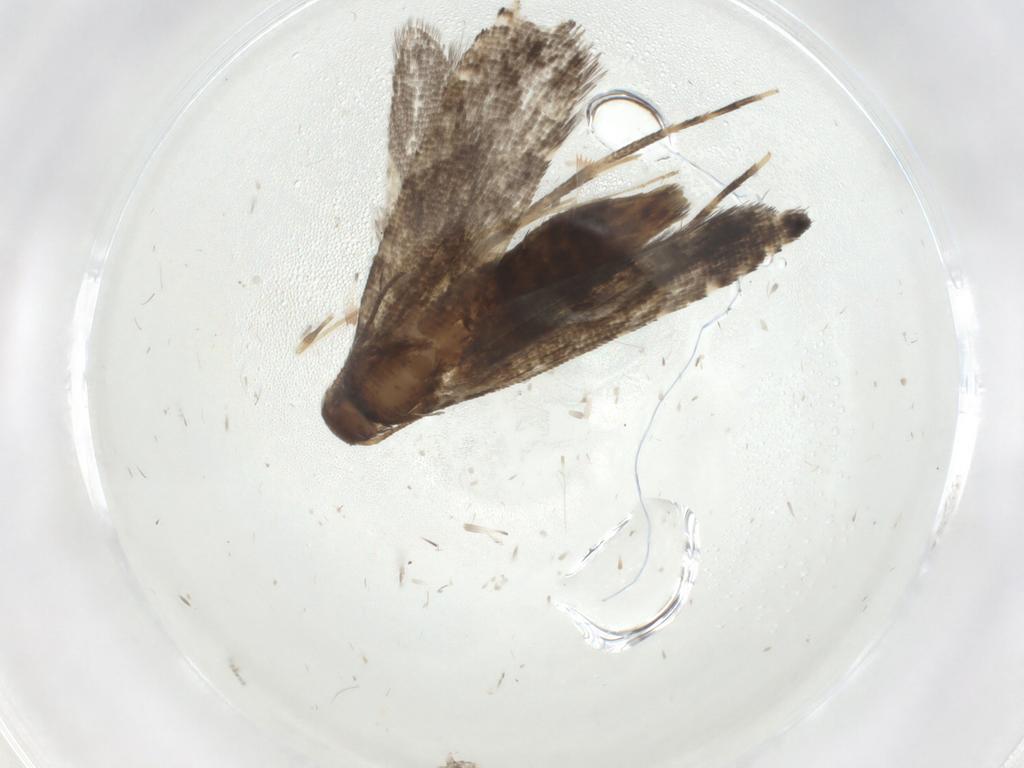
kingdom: Animalia
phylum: Arthropoda
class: Insecta
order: Lepidoptera
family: Glyphipterigidae
